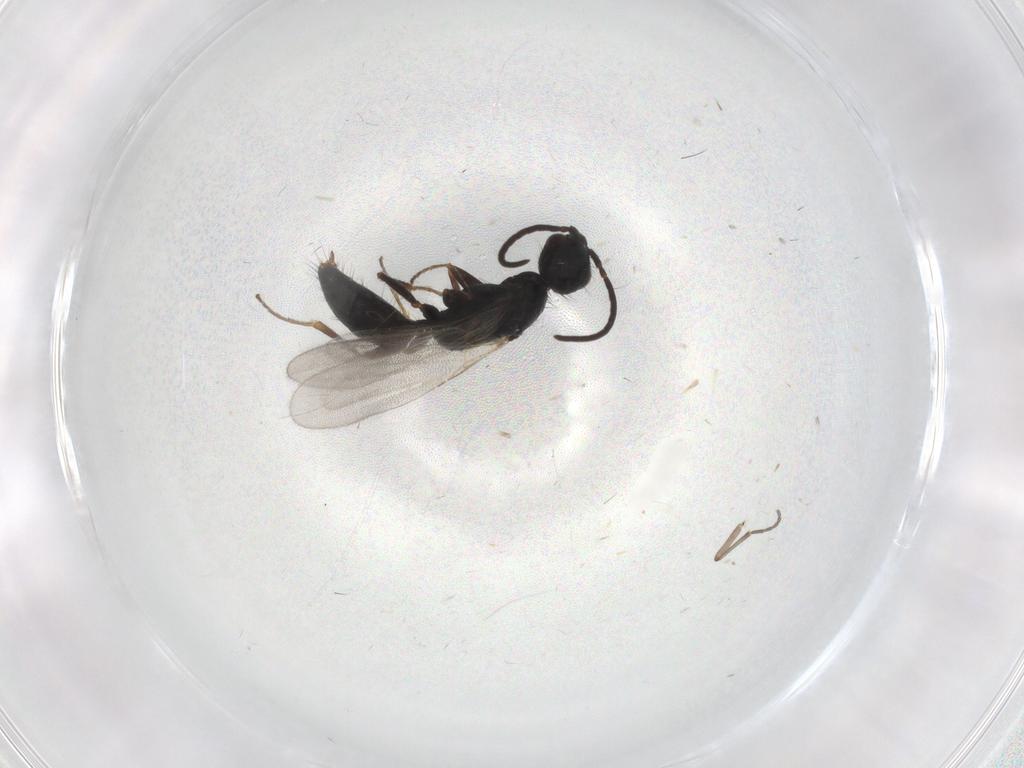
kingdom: Animalia
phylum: Arthropoda
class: Insecta
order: Hymenoptera
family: Bethylidae
